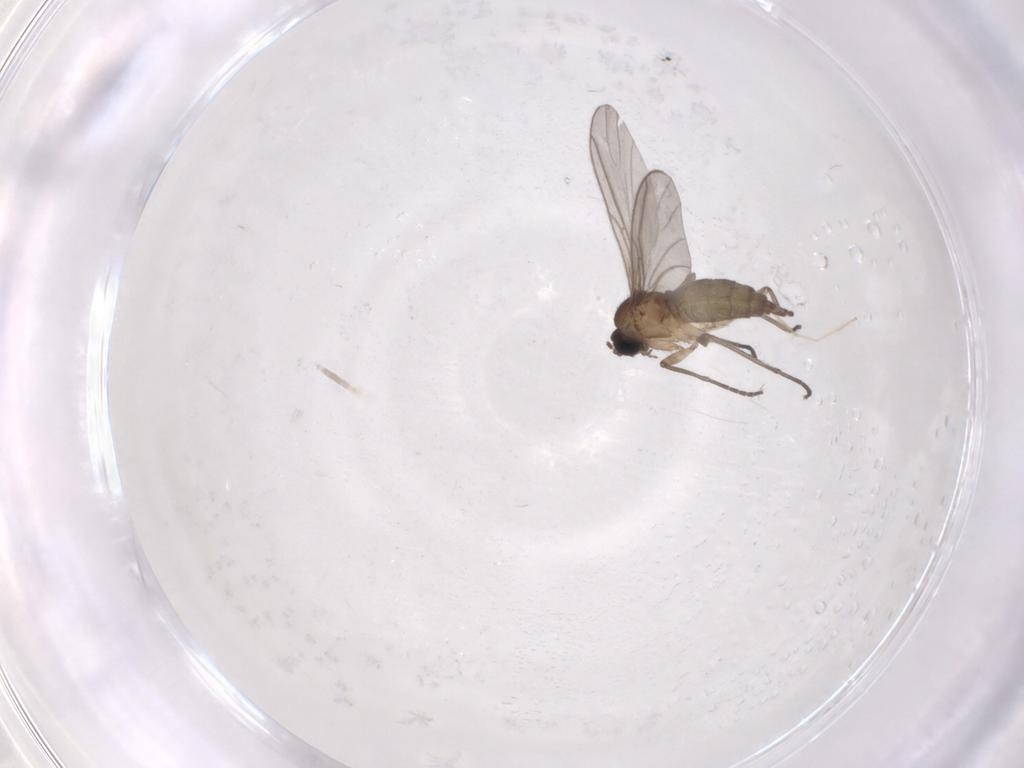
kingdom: Animalia
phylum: Arthropoda
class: Insecta
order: Diptera
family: Sciaridae
